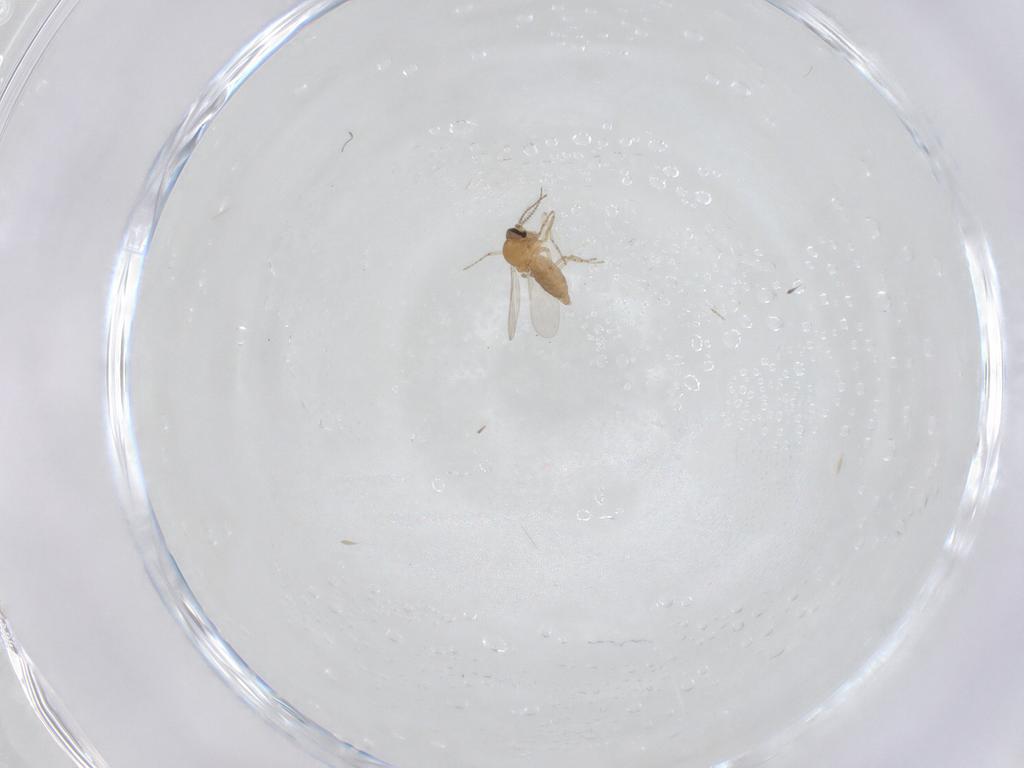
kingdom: Animalia
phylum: Arthropoda
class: Insecta
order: Diptera
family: Ceratopogonidae
